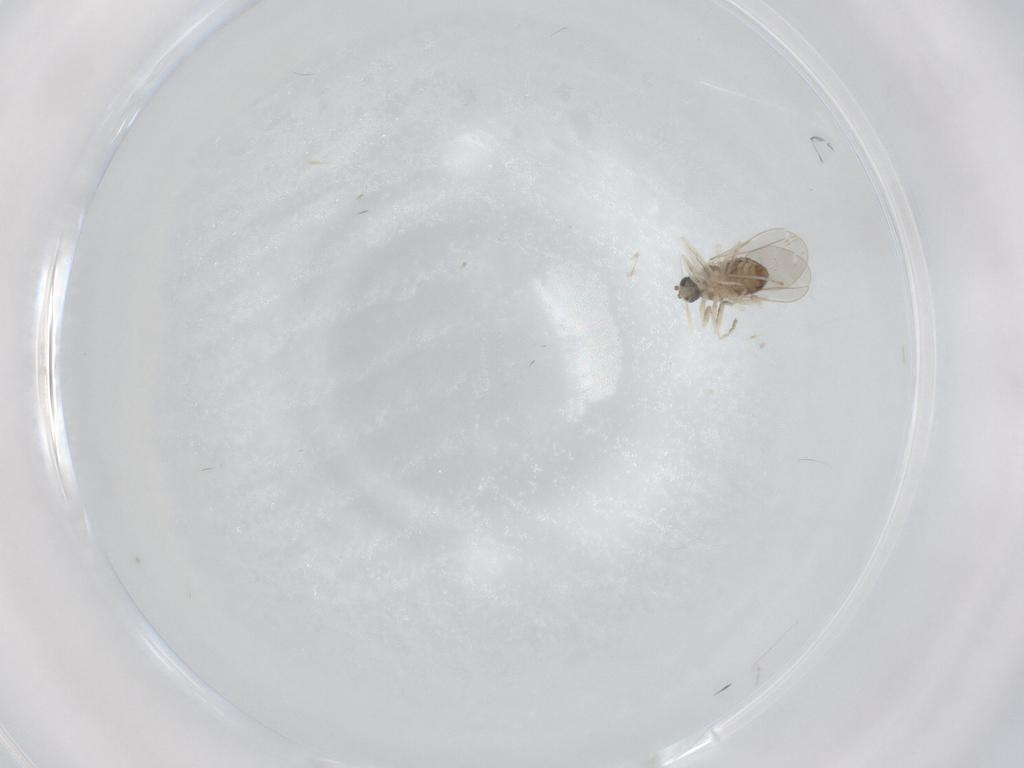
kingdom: Animalia
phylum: Arthropoda
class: Insecta
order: Diptera
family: Cecidomyiidae
